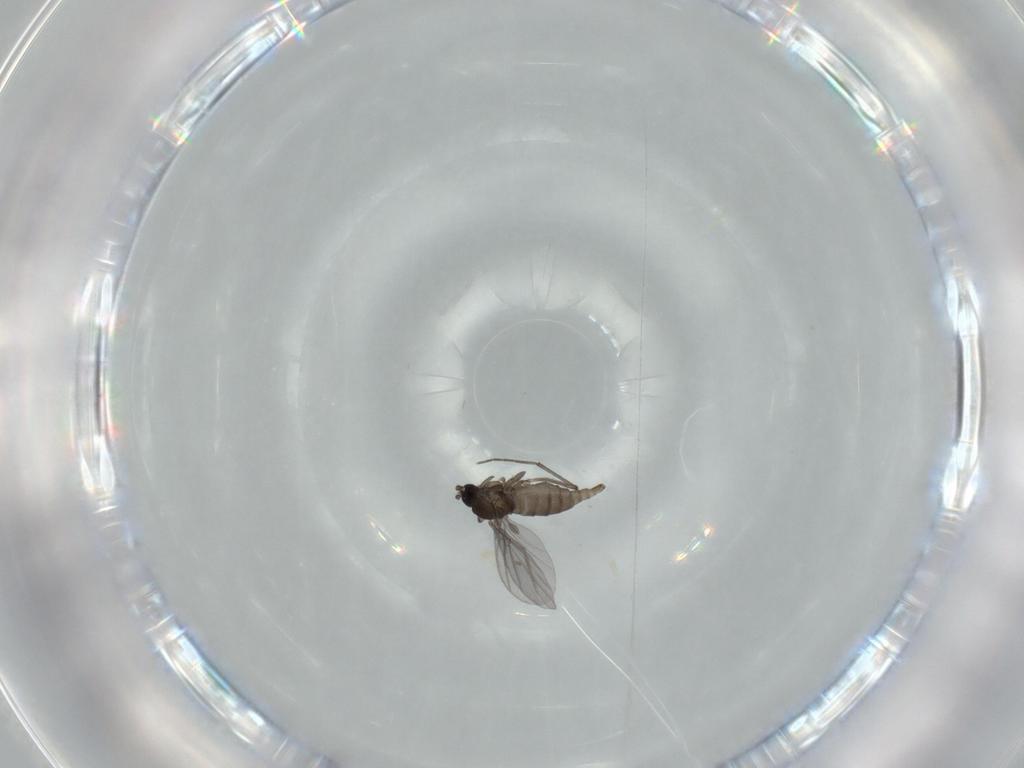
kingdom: Animalia
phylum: Arthropoda
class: Insecta
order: Diptera
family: Sciaridae
